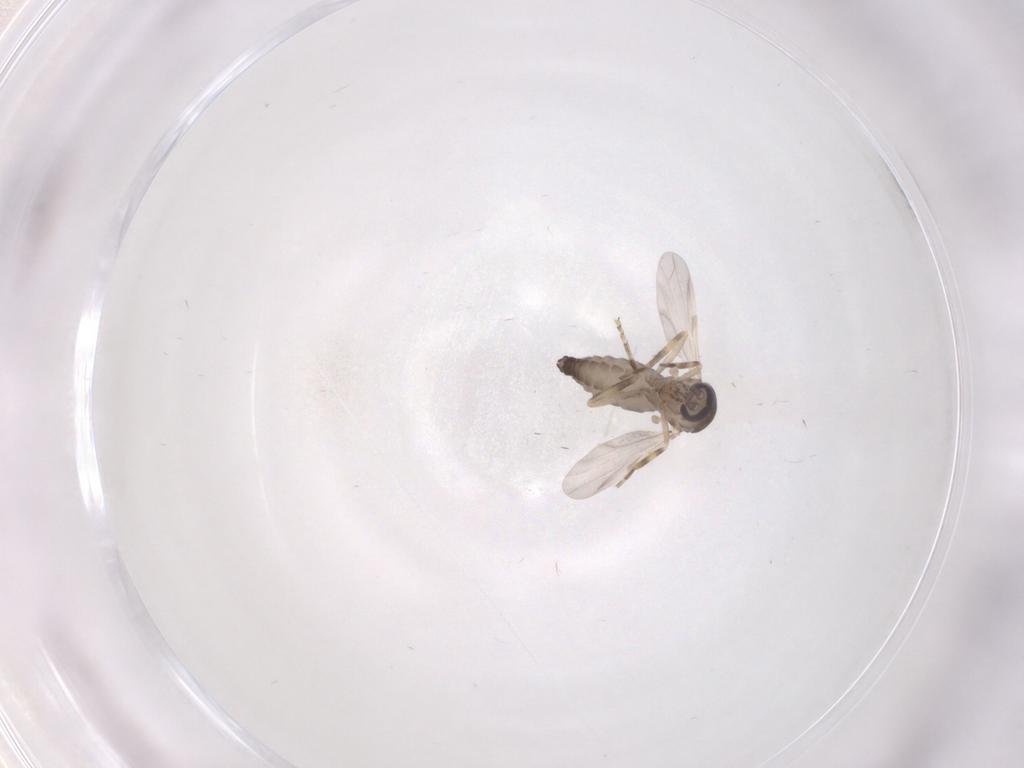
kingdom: Animalia
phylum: Arthropoda
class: Insecta
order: Diptera
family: Ceratopogonidae
